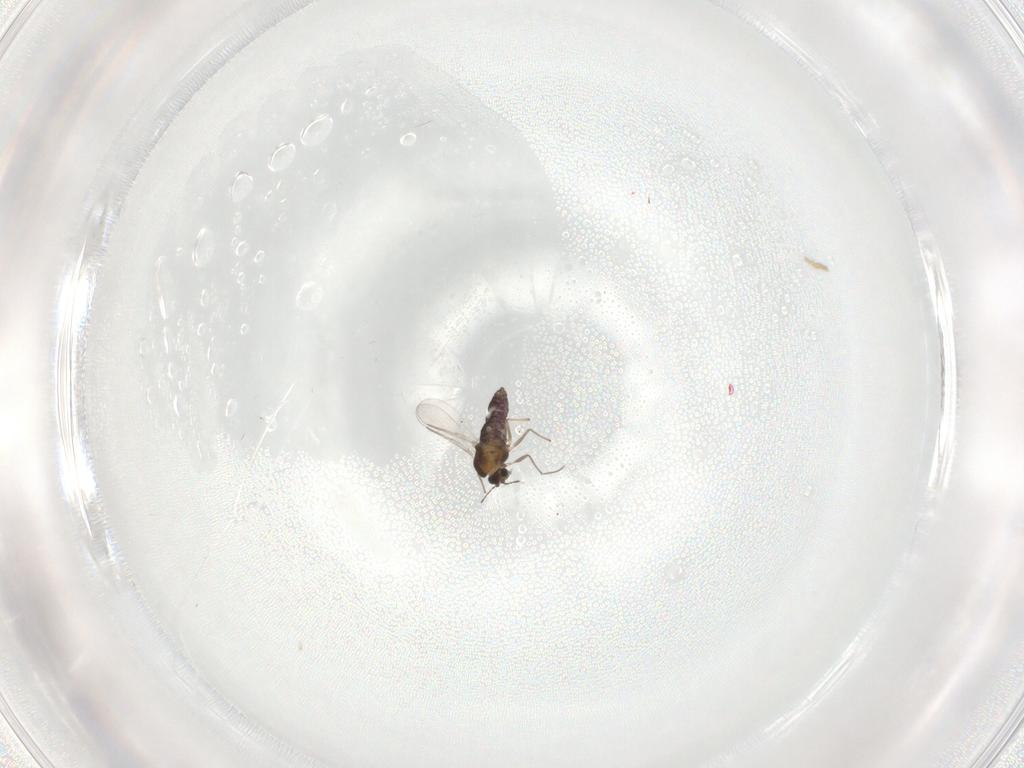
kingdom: Animalia
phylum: Arthropoda
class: Insecta
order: Diptera
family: Chironomidae
